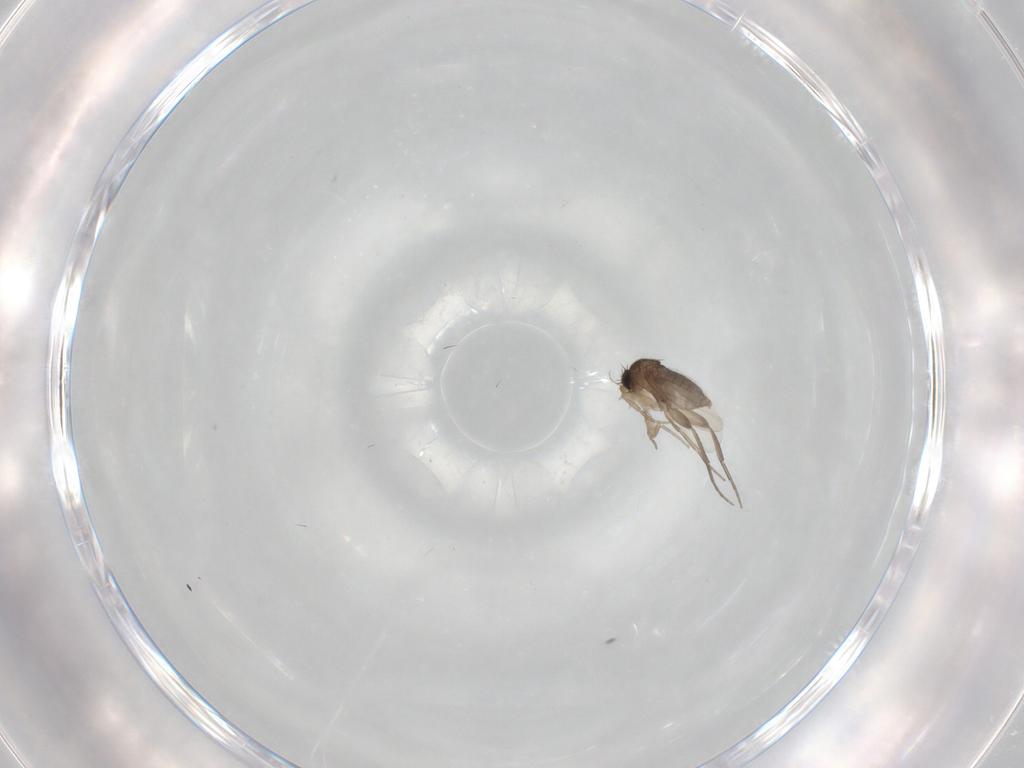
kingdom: Animalia
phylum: Arthropoda
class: Insecta
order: Diptera
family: Phoridae
